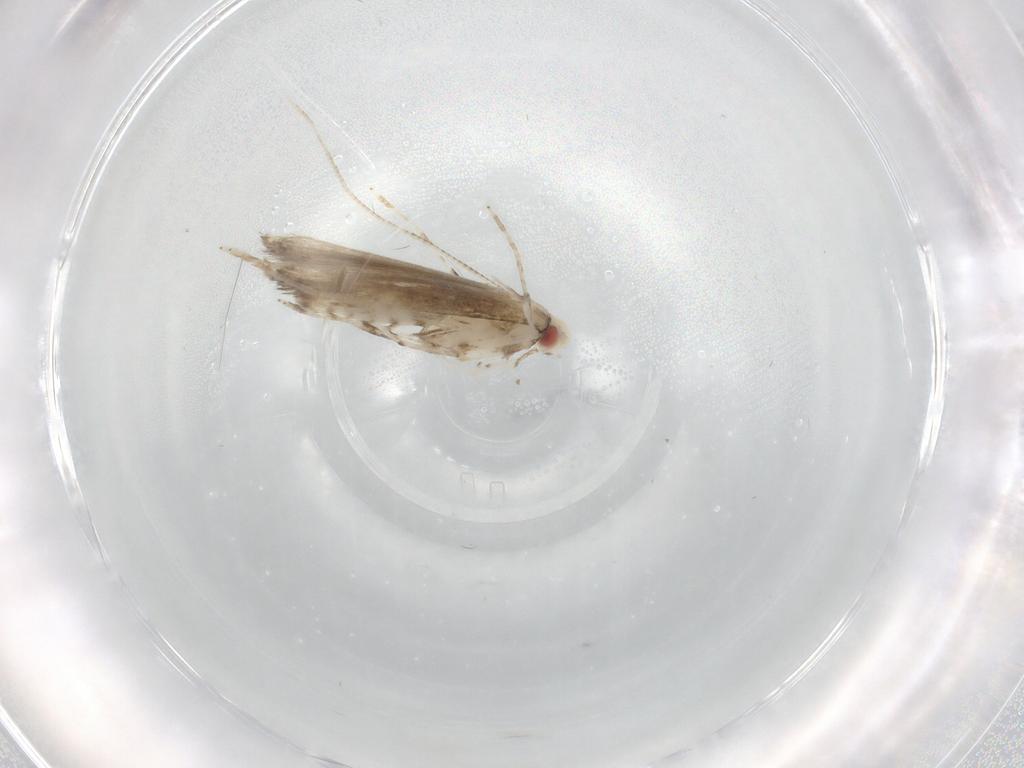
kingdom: Animalia
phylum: Arthropoda
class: Insecta
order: Lepidoptera
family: Gracillariidae
